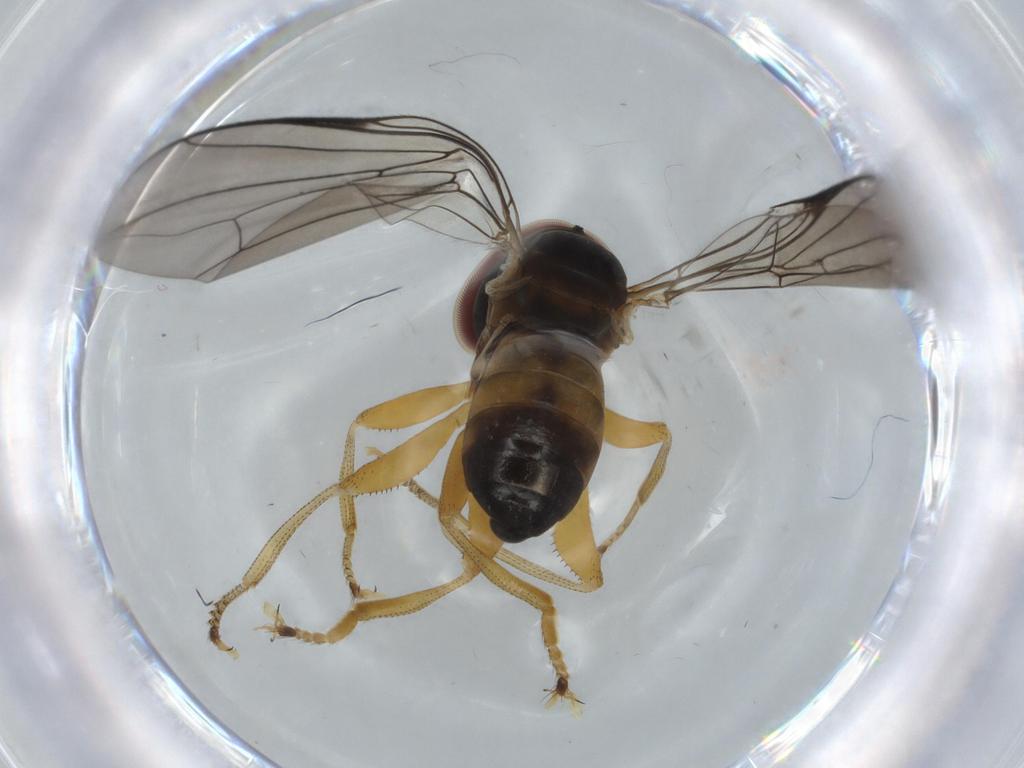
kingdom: Animalia
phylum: Arthropoda
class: Insecta
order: Diptera
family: Pipunculidae
